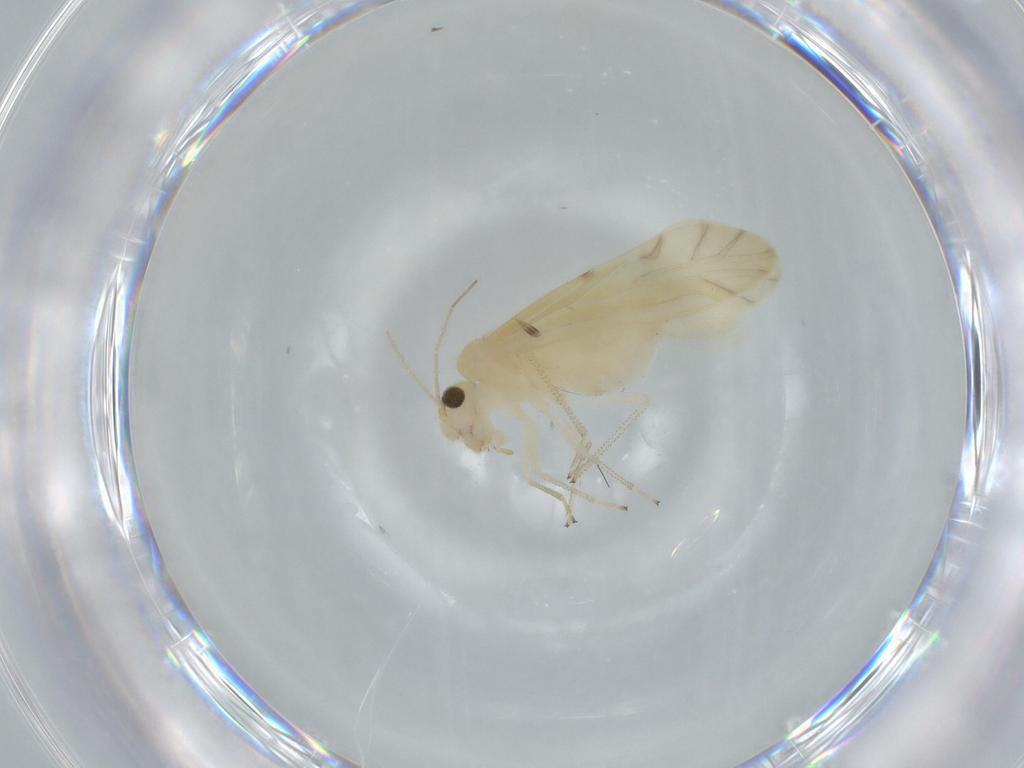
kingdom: Animalia
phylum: Arthropoda
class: Insecta
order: Psocodea
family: Caeciliusidae
